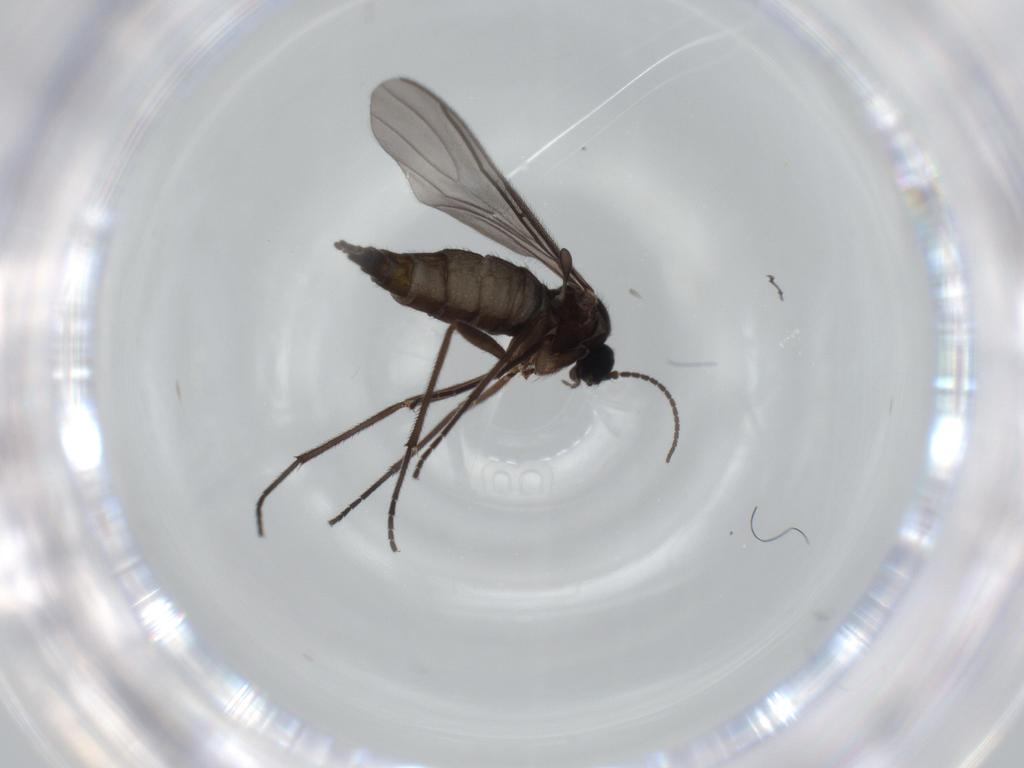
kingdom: Animalia
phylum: Arthropoda
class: Insecta
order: Diptera
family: Sciaridae
